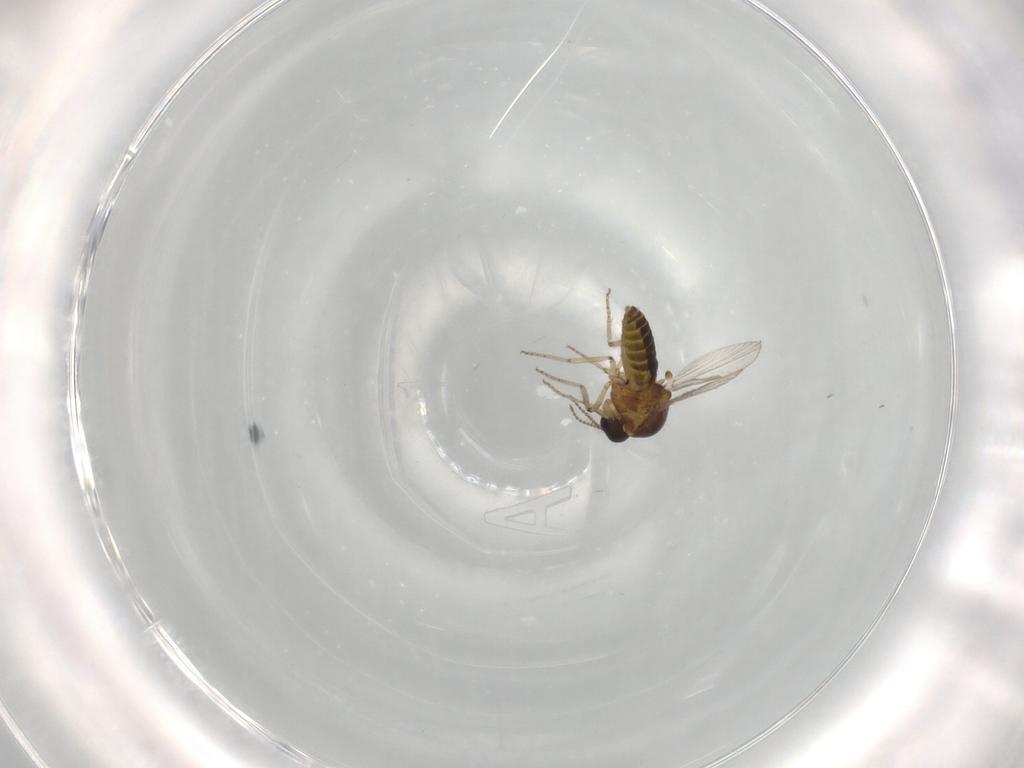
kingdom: Animalia
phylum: Arthropoda
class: Insecta
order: Diptera
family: Ceratopogonidae
